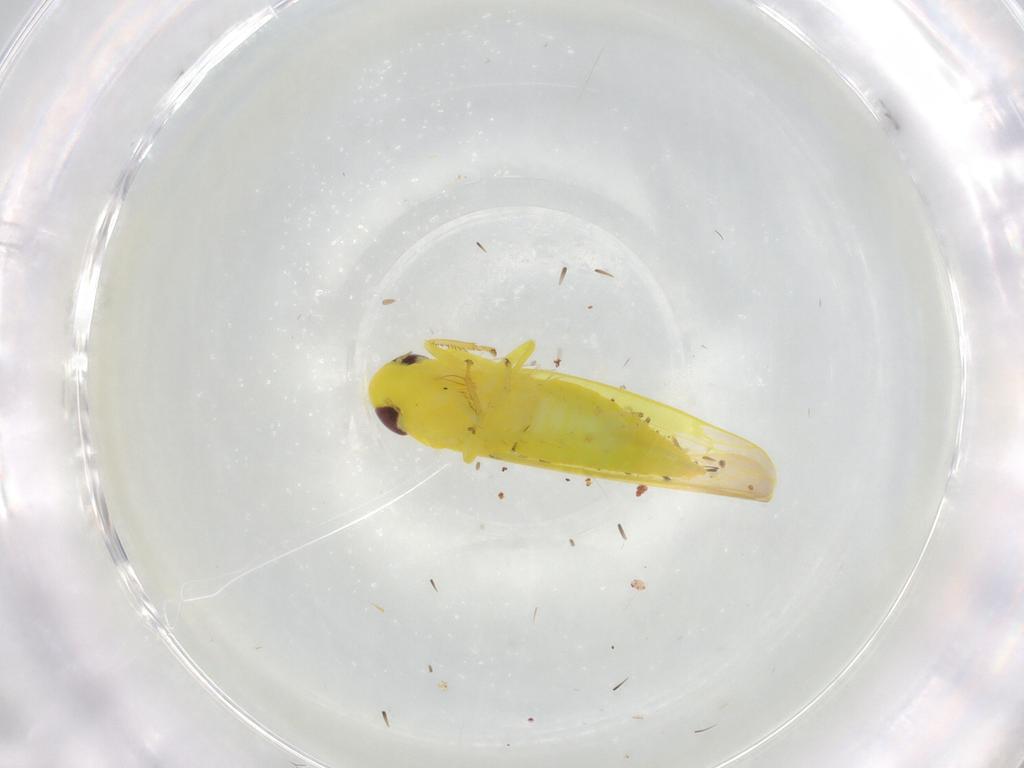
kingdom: Animalia
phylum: Arthropoda
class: Insecta
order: Hemiptera
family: Cicadellidae
